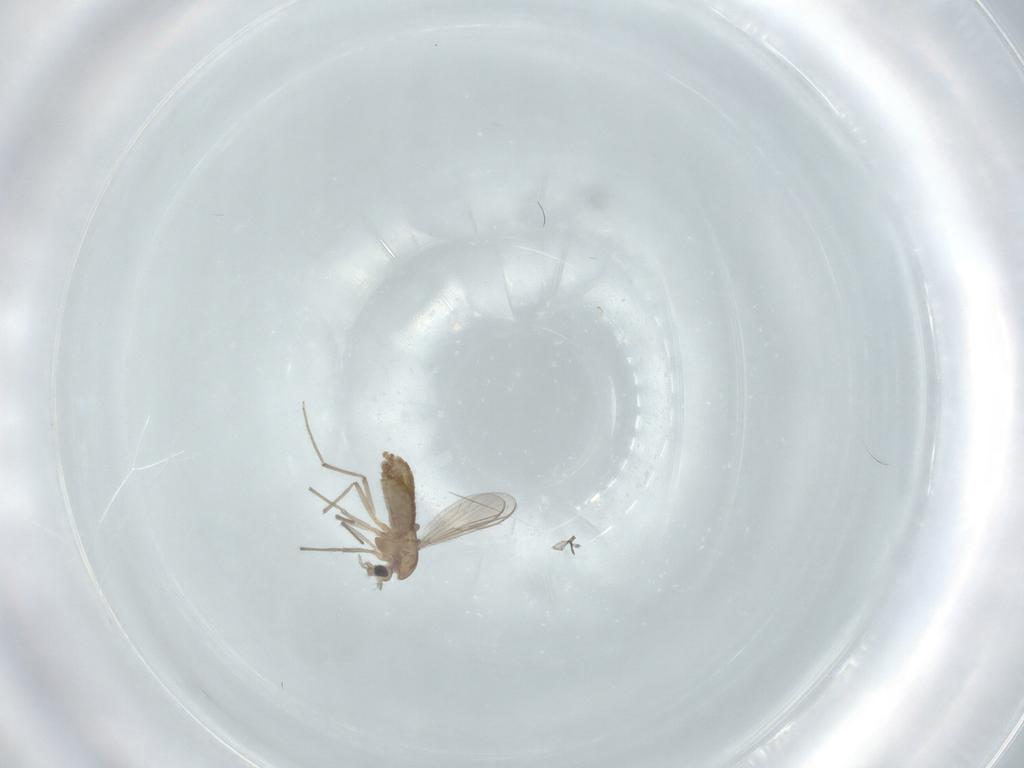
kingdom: Animalia
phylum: Arthropoda
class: Insecta
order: Diptera
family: Chironomidae
